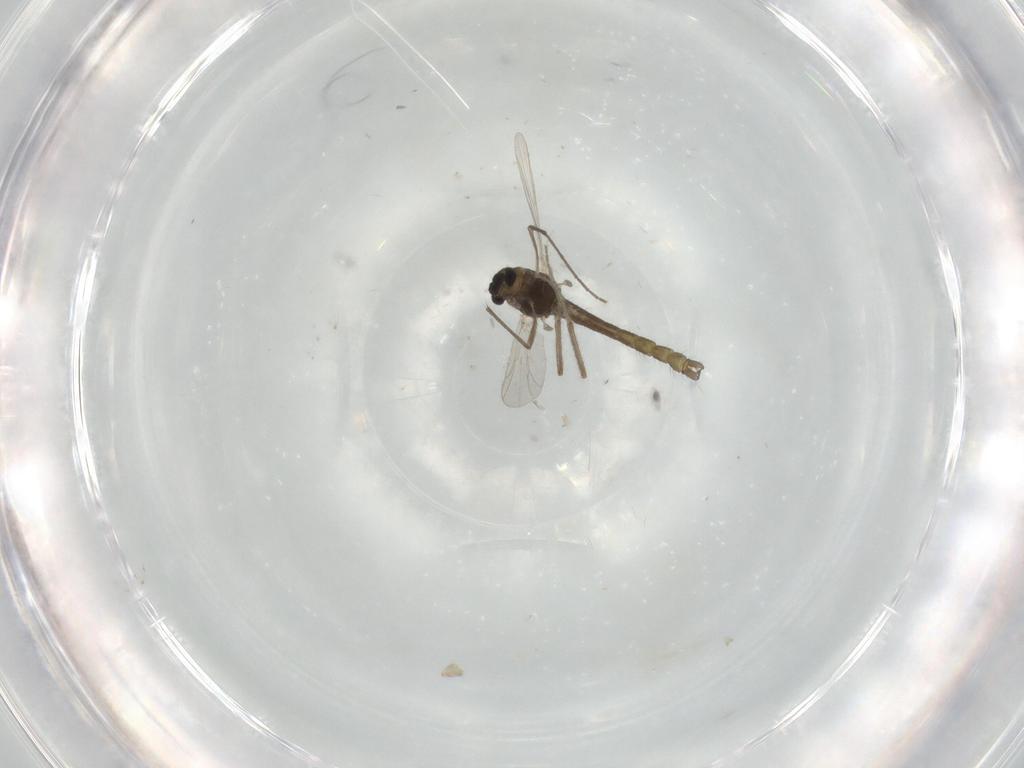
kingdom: Animalia
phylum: Arthropoda
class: Insecta
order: Diptera
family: Chironomidae
